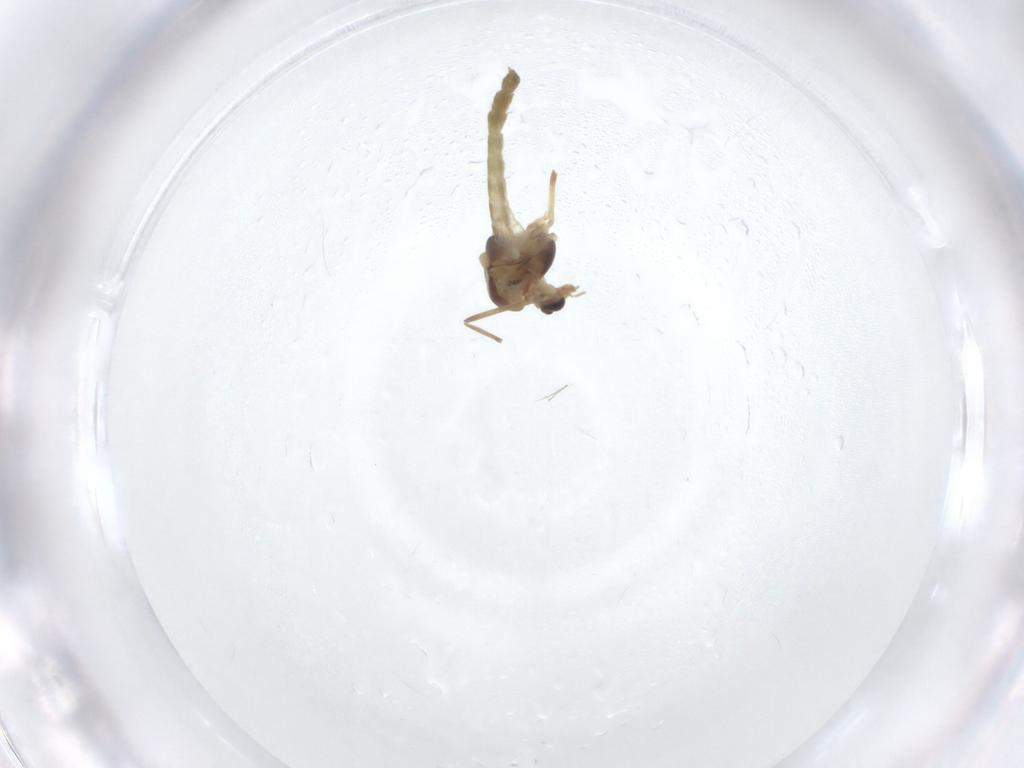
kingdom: Animalia
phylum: Arthropoda
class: Insecta
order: Diptera
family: Chironomidae
